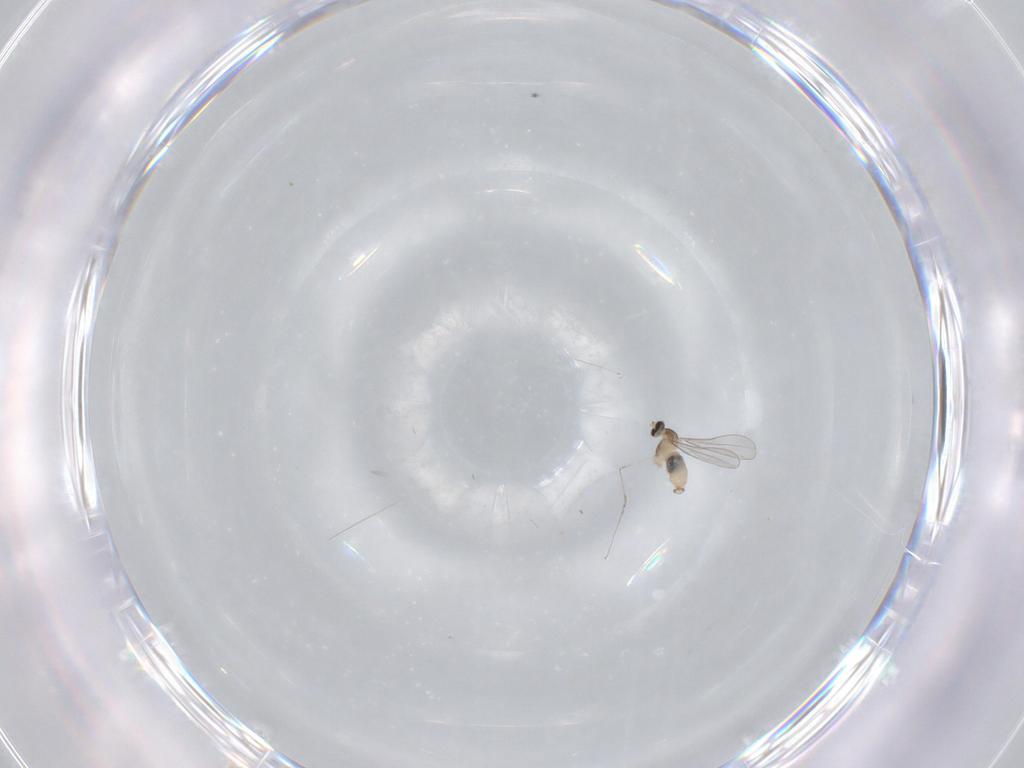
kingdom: Animalia
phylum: Arthropoda
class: Insecta
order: Diptera
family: Cecidomyiidae
